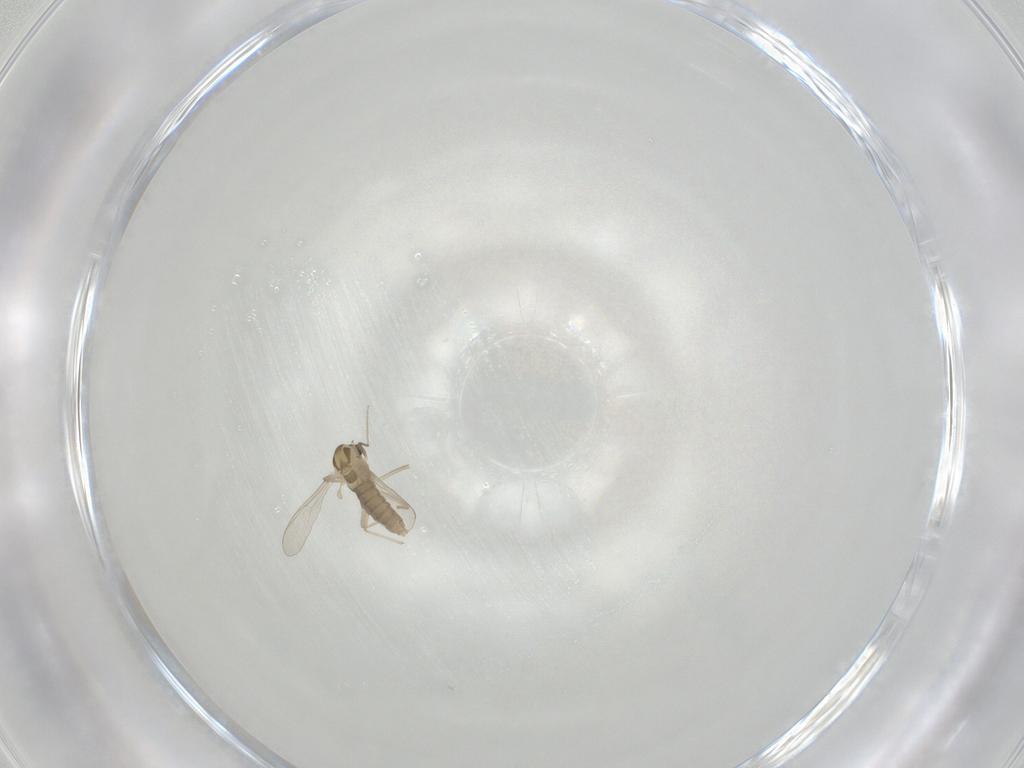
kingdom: Animalia
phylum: Arthropoda
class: Insecta
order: Diptera
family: Chironomidae
